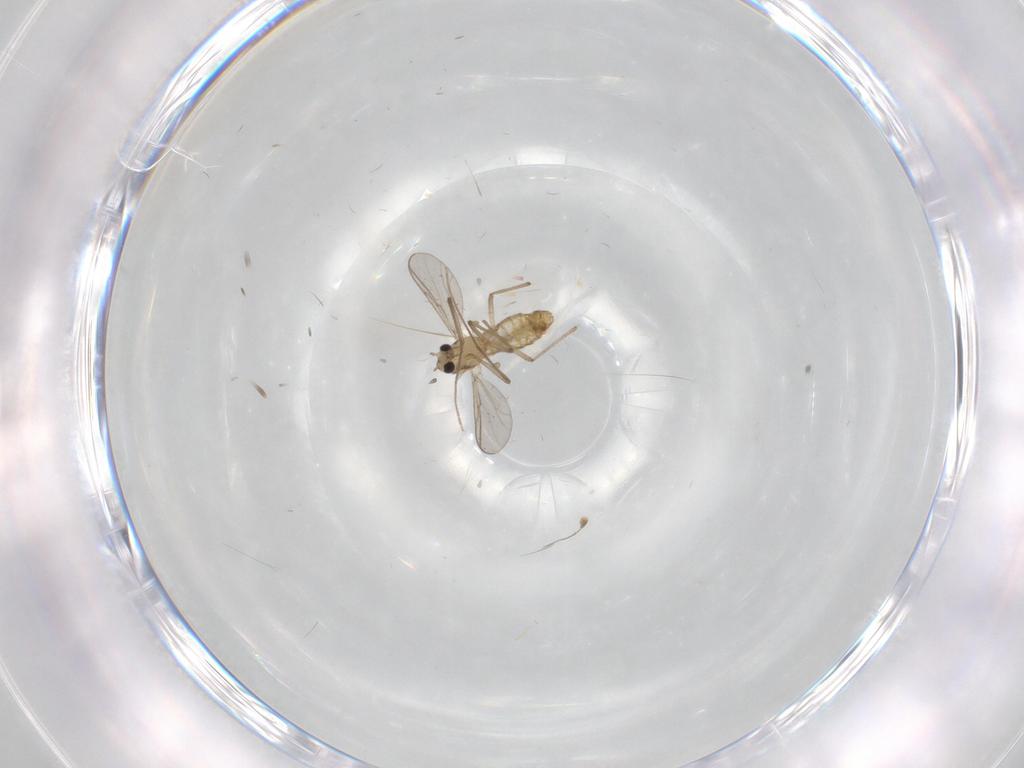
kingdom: Animalia
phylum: Arthropoda
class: Insecta
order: Diptera
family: Chironomidae
